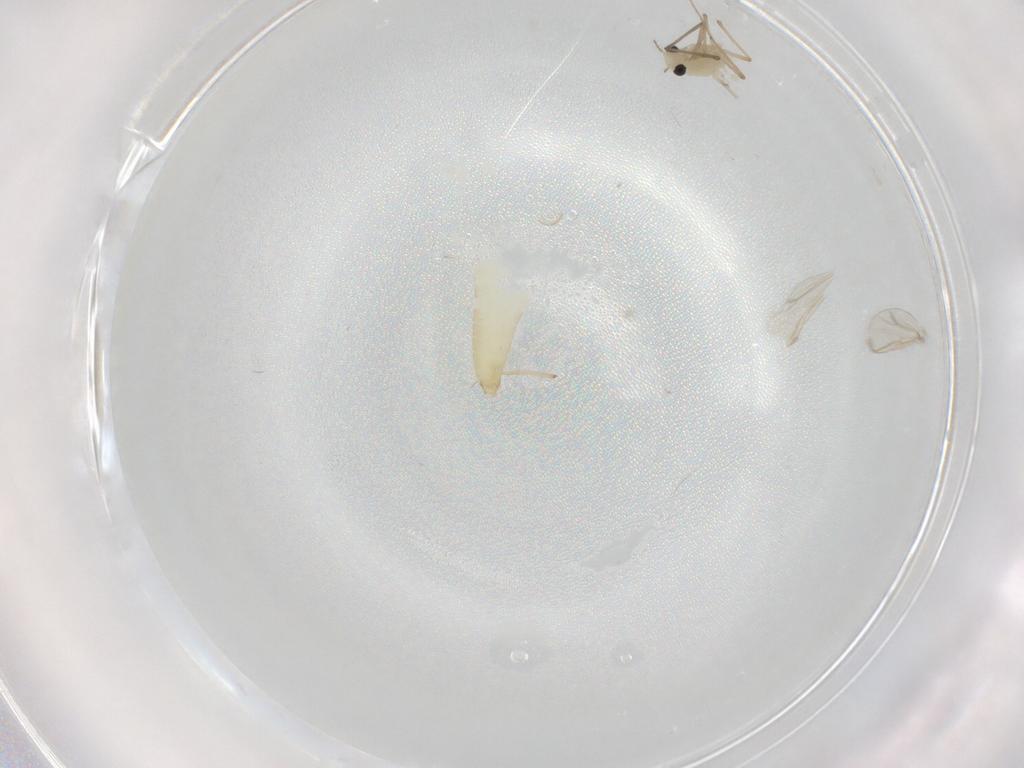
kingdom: Animalia
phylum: Arthropoda
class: Insecta
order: Diptera
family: Chironomidae
